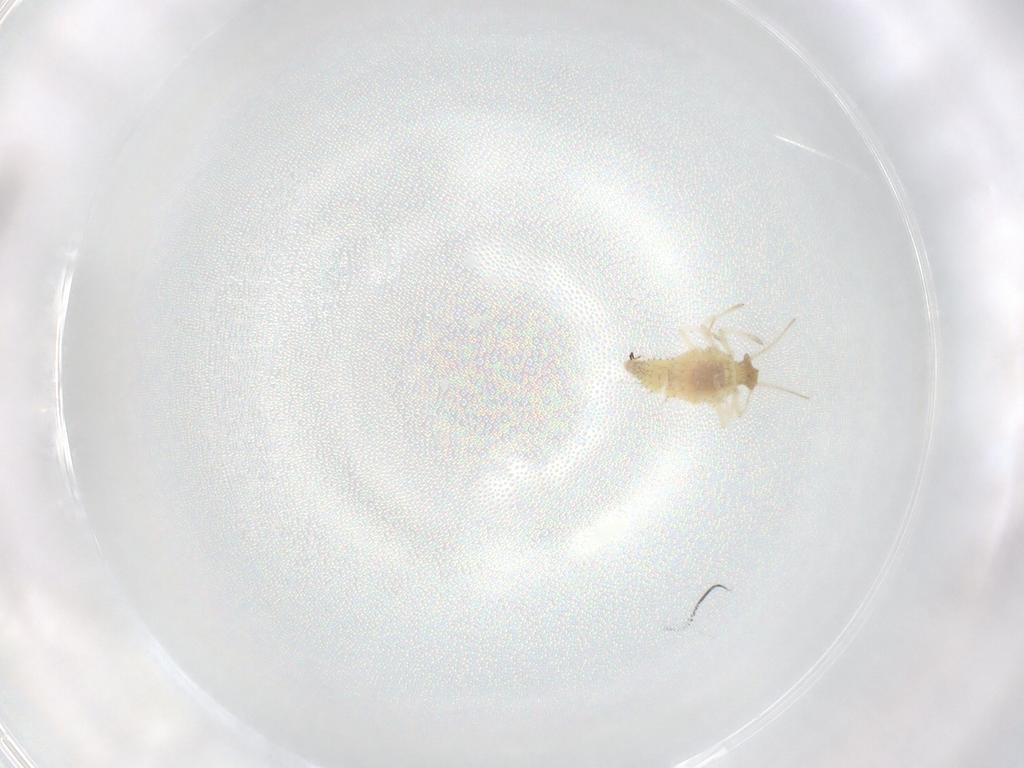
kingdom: Animalia
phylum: Arthropoda
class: Insecta
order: Neuroptera
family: Coniopterygidae
